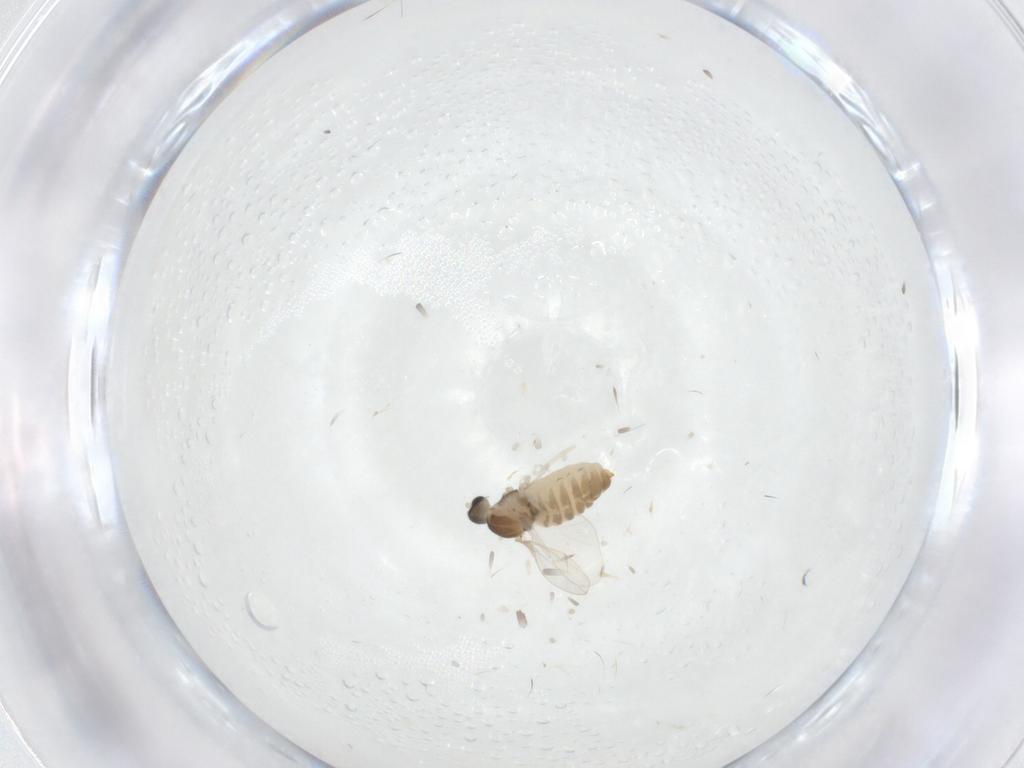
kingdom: Animalia
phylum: Arthropoda
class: Insecta
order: Diptera
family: Cecidomyiidae
